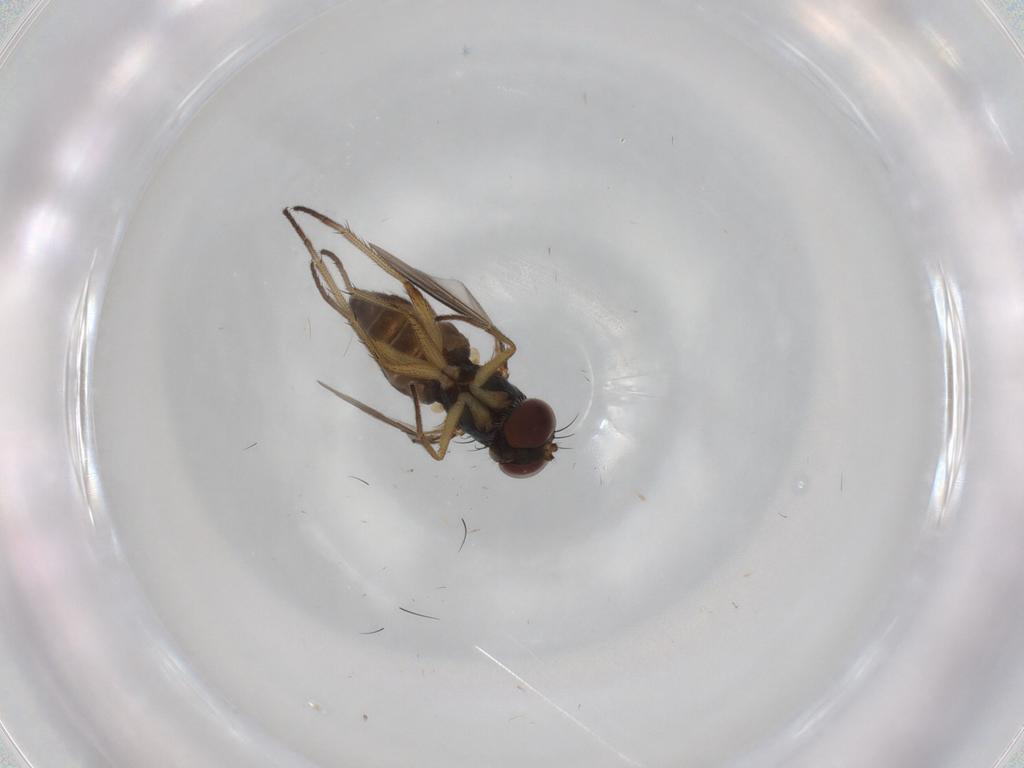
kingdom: Animalia
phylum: Arthropoda
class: Insecta
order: Diptera
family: Dolichopodidae
